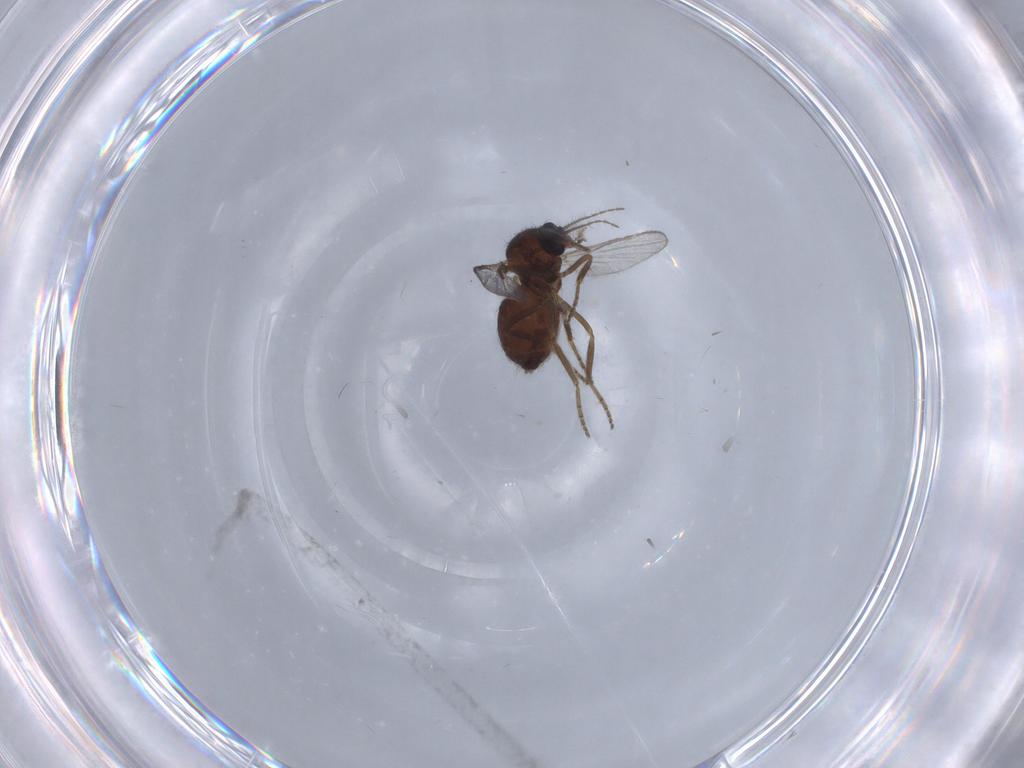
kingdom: Animalia
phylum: Arthropoda
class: Insecta
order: Diptera
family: Ceratopogonidae
